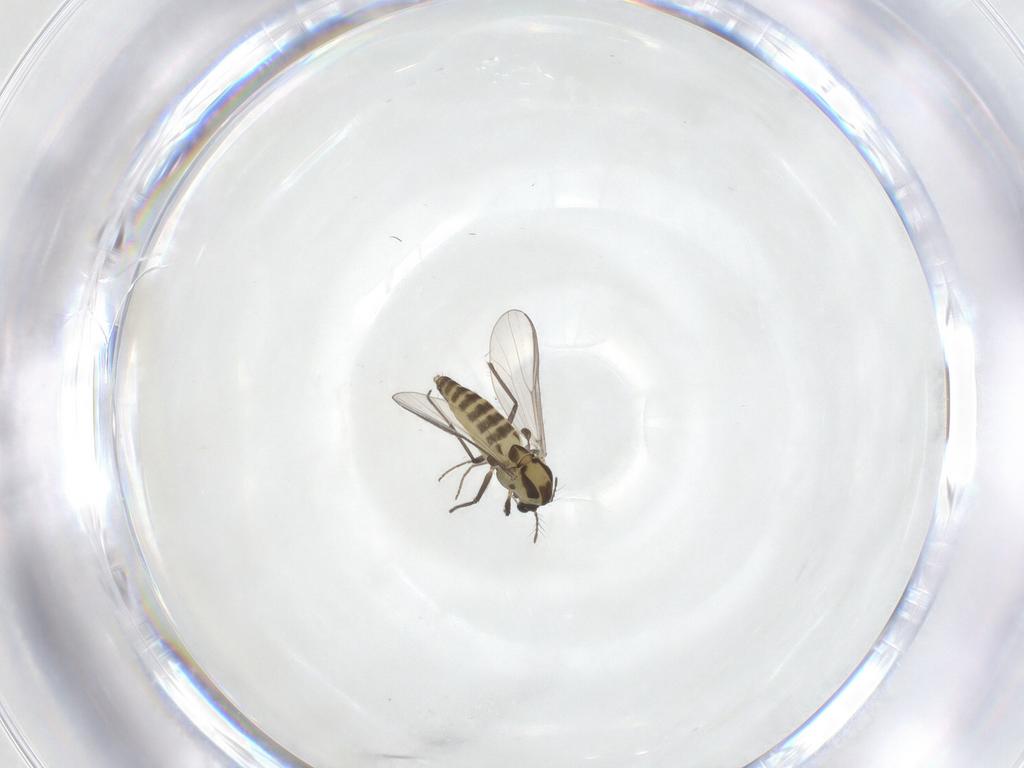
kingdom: Animalia
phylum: Arthropoda
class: Insecta
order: Diptera
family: Chironomidae
